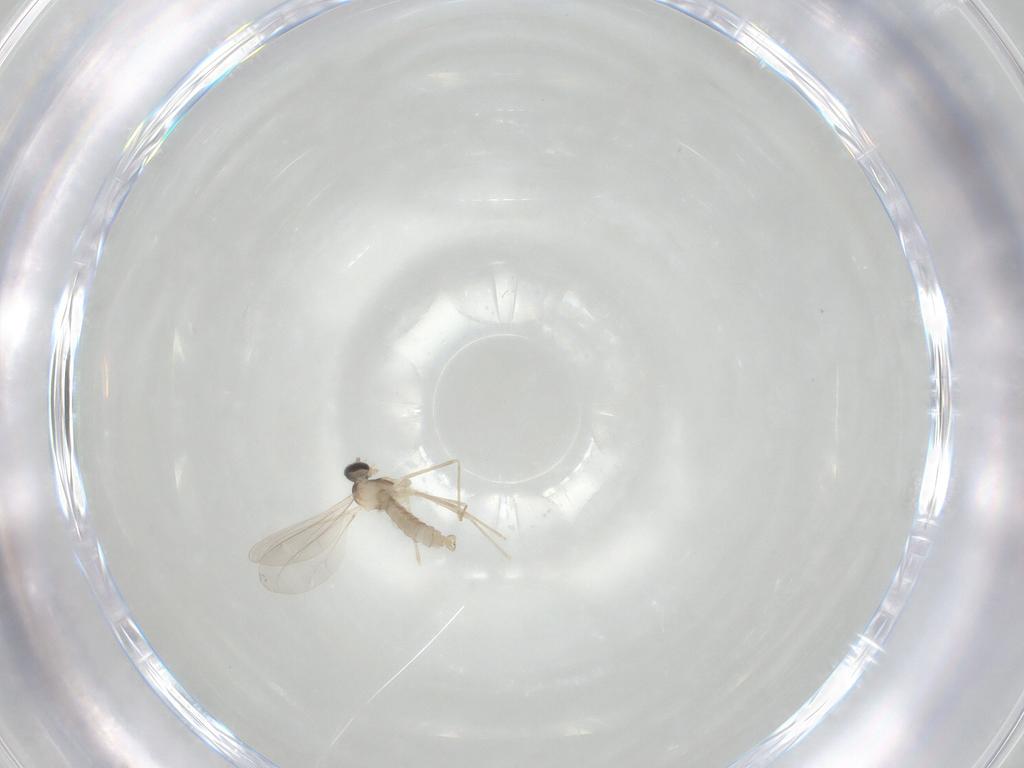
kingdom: Animalia
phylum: Arthropoda
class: Insecta
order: Diptera
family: Cecidomyiidae
